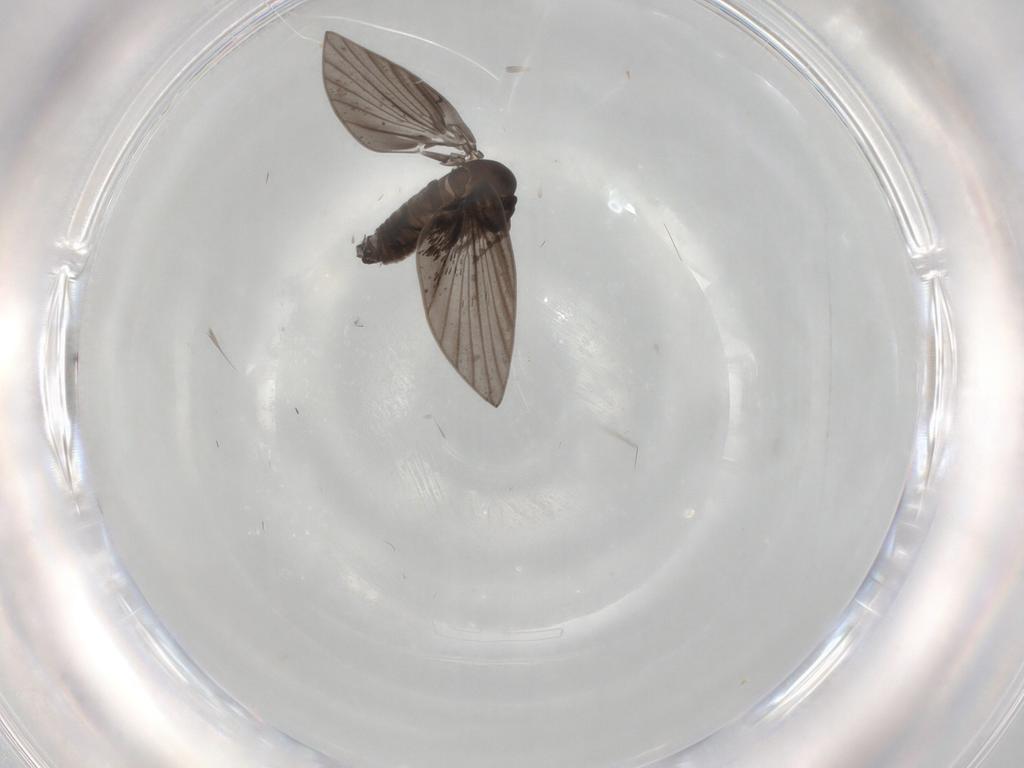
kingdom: Animalia
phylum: Arthropoda
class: Insecta
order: Diptera
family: Psychodidae
